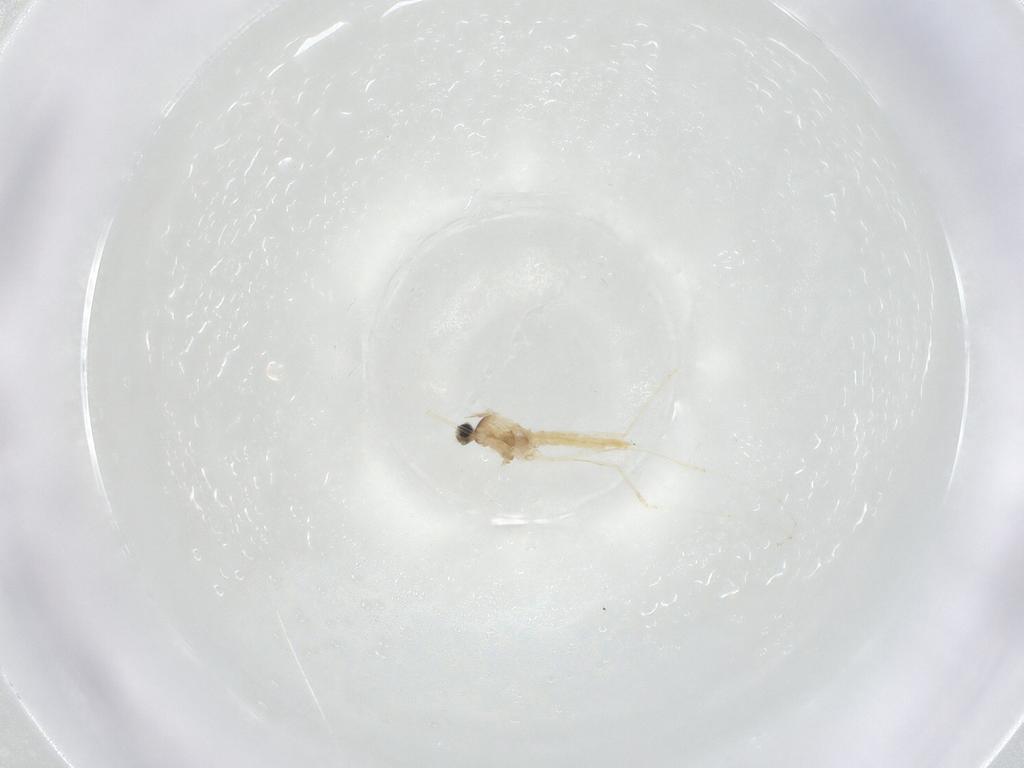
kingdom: Animalia
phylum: Arthropoda
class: Insecta
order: Diptera
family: Cecidomyiidae
